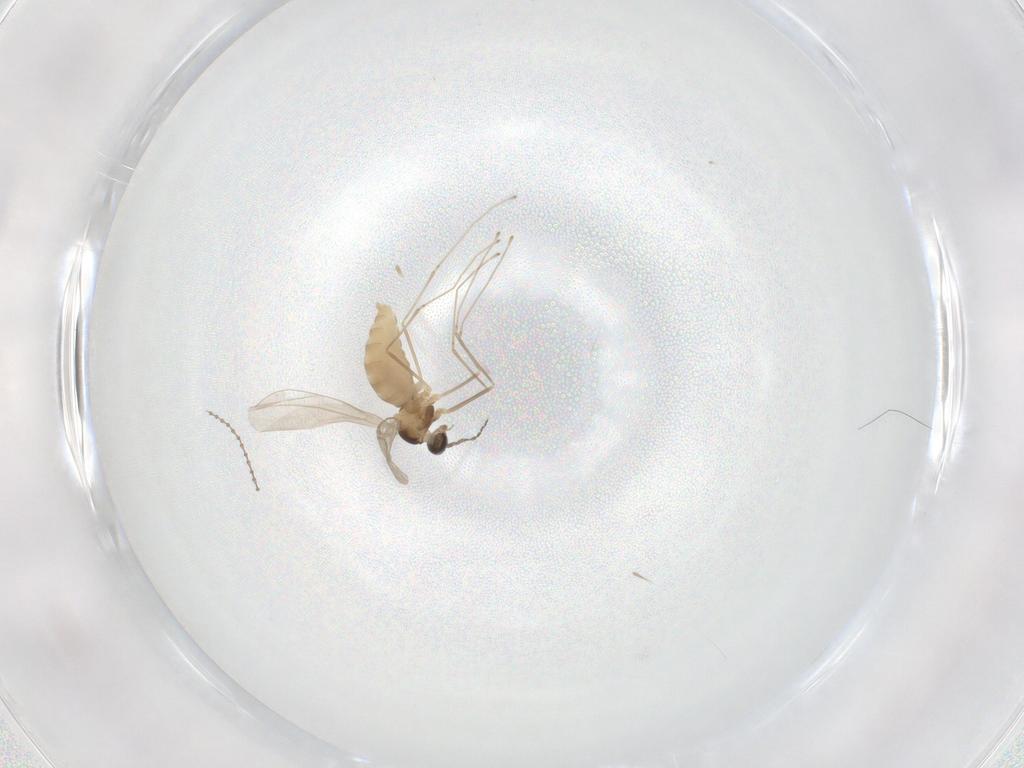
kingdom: Animalia
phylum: Arthropoda
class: Insecta
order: Diptera
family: Cecidomyiidae
